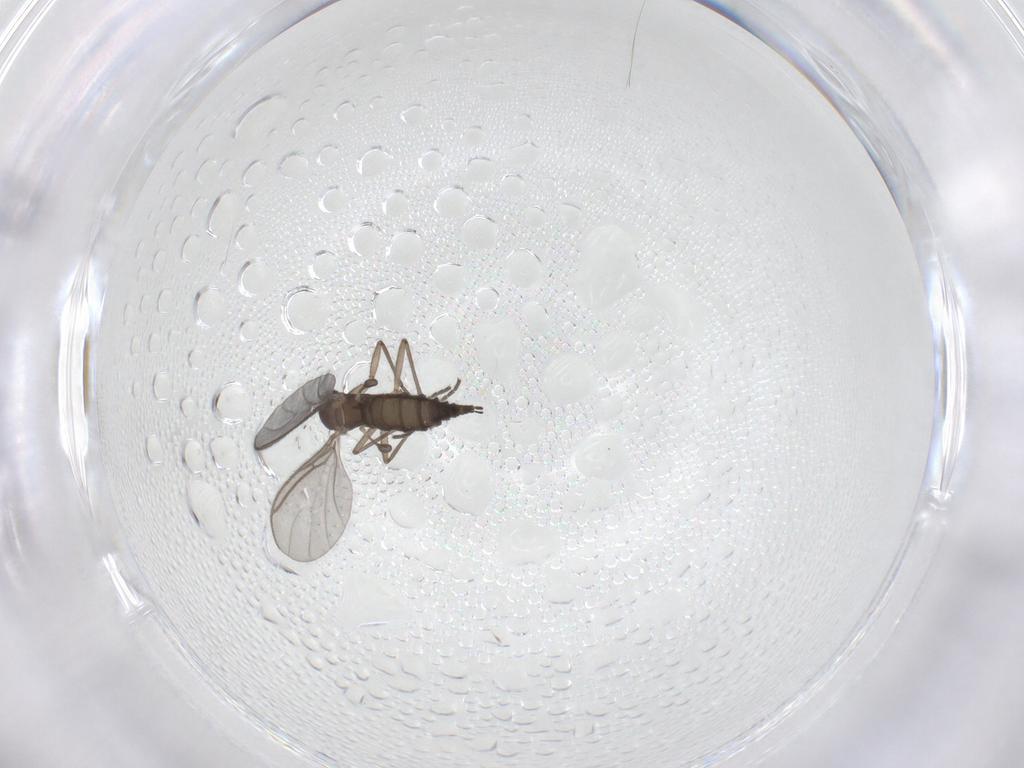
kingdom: Animalia
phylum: Arthropoda
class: Insecta
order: Diptera
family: Sciaridae
